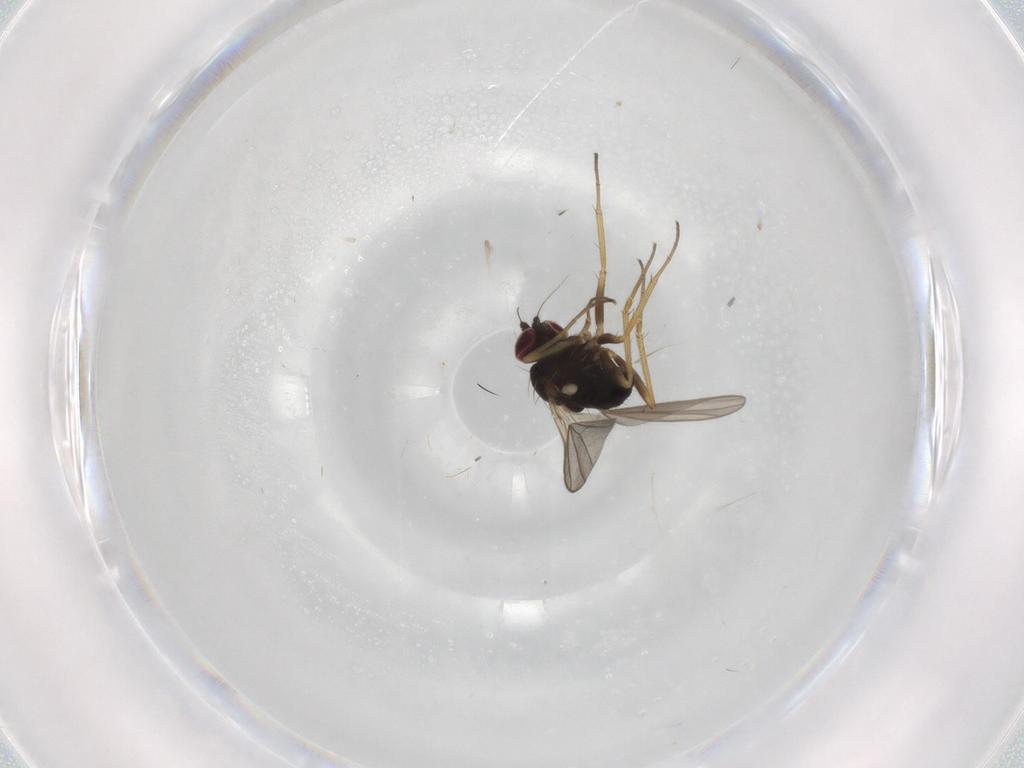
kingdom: Animalia
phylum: Arthropoda
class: Insecta
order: Diptera
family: Dolichopodidae
